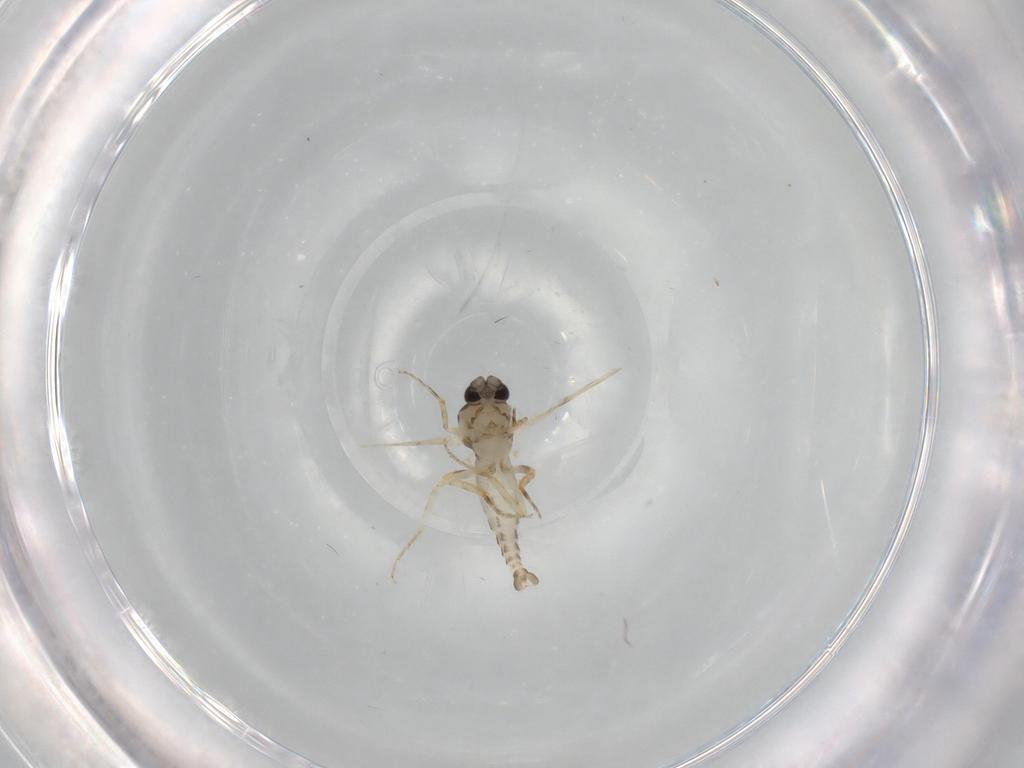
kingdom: Animalia
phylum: Arthropoda
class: Insecta
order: Diptera
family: Ceratopogonidae
